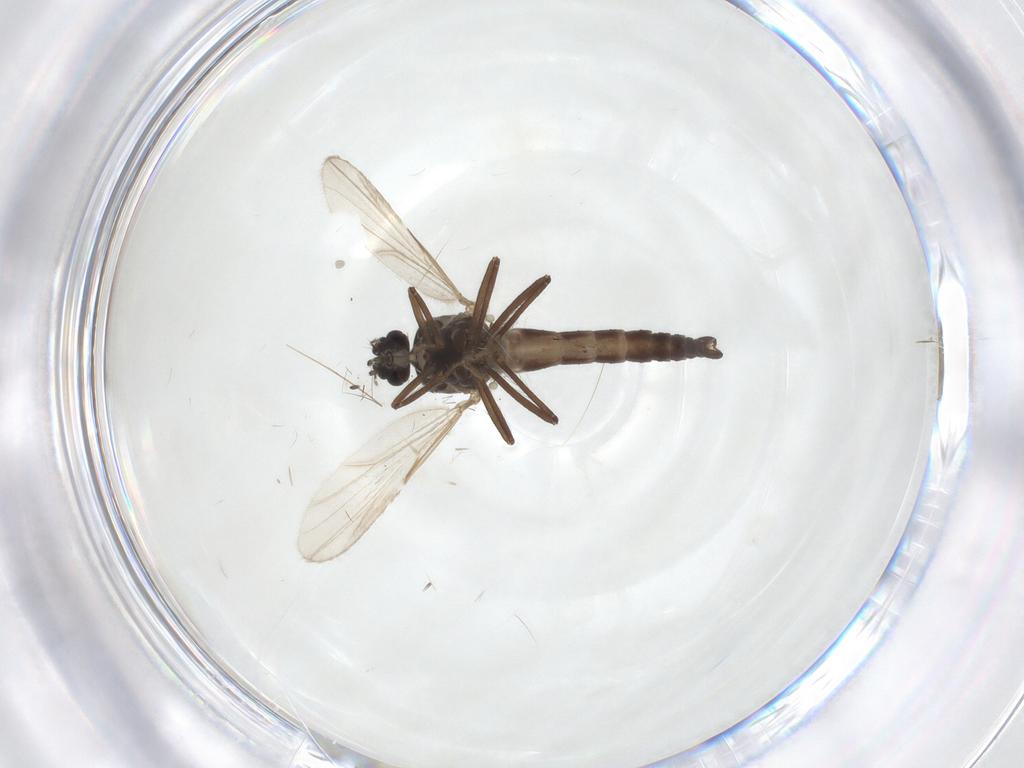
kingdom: Animalia
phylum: Arthropoda
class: Insecta
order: Diptera
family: Ceratopogonidae
